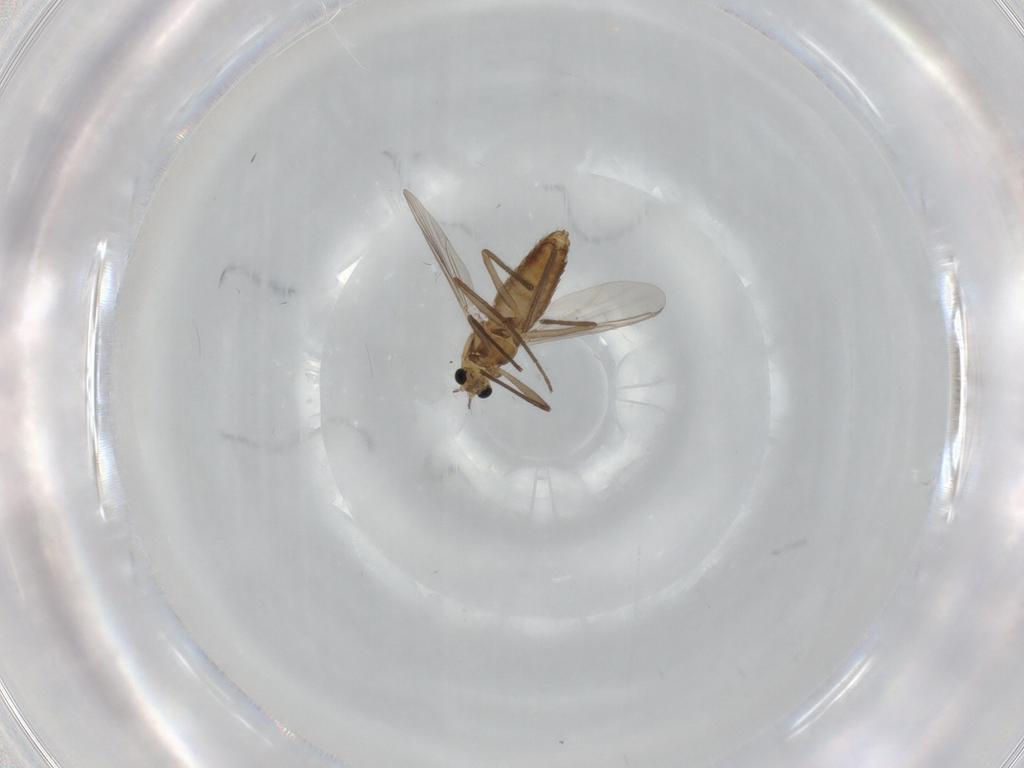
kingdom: Animalia
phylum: Arthropoda
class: Insecta
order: Diptera
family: Chironomidae
